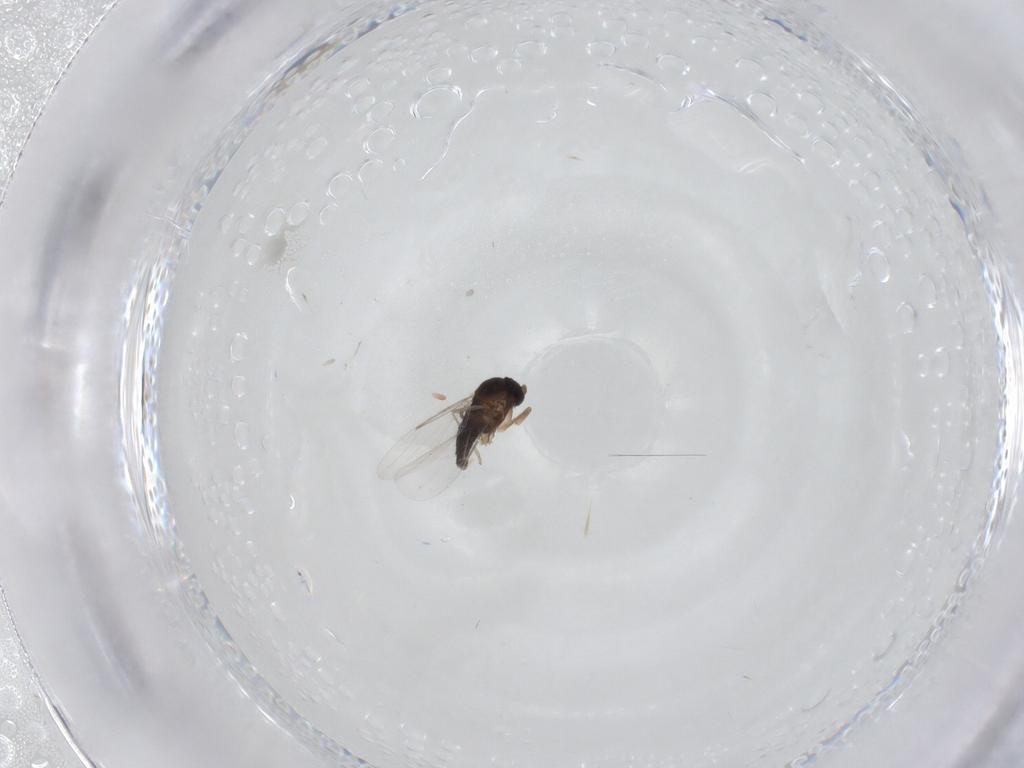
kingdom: Animalia
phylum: Arthropoda
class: Insecta
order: Diptera
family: Phoridae
